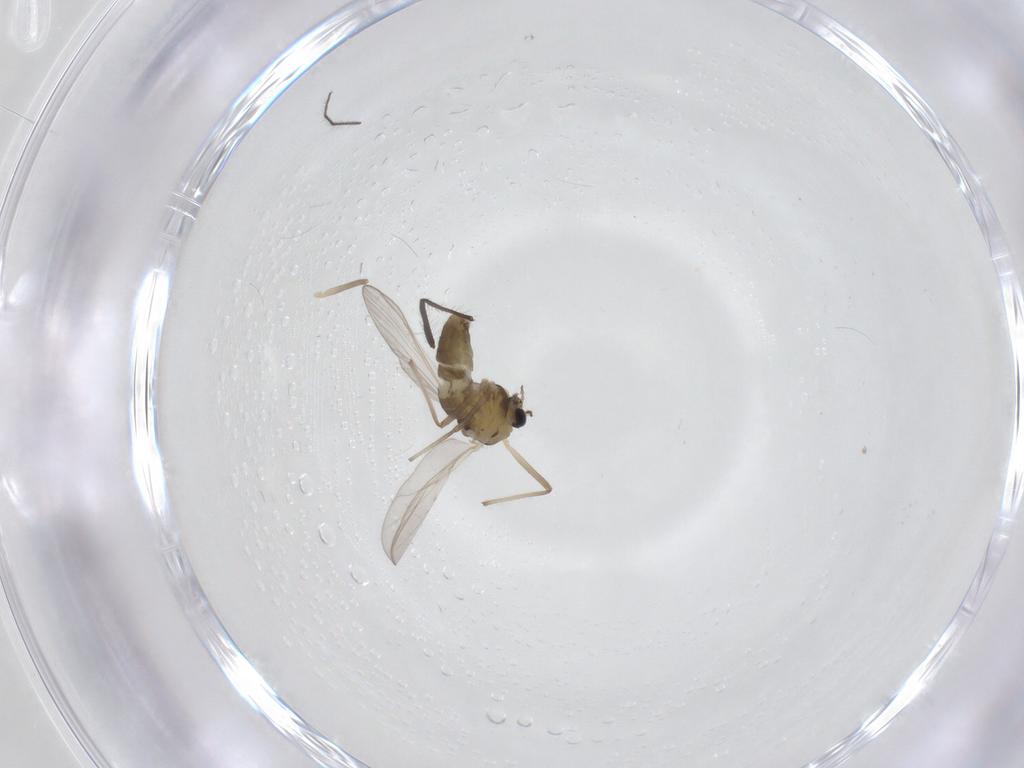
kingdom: Animalia
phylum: Arthropoda
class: Insecta
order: Diptera
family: Chironomidae
